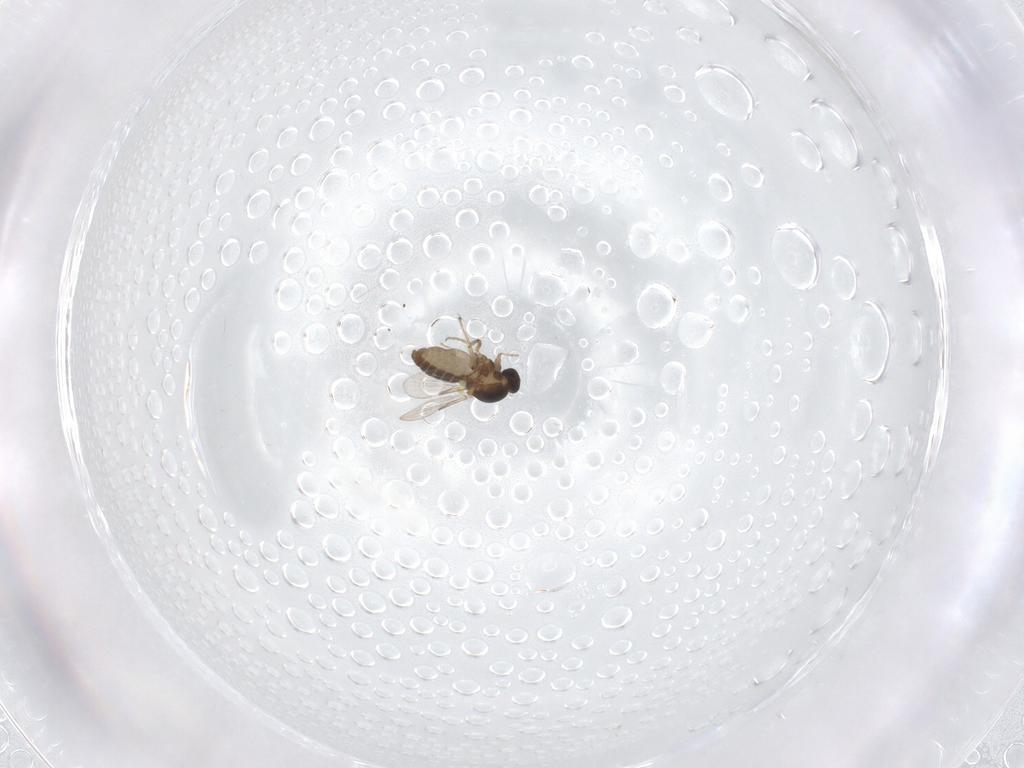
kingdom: Animalia
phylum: Arthropoda
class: Insecta
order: Diptera
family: Ceratopogonidae
